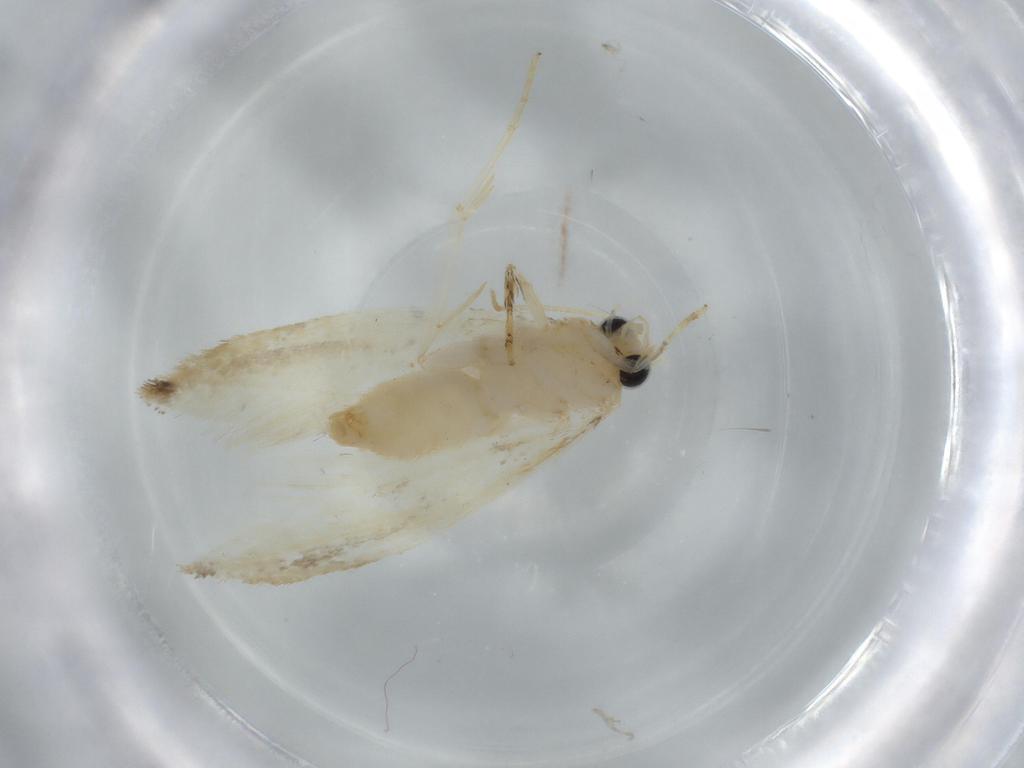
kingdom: Animalia
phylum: Arthropoda
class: Insecta
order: Lepidoptera
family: Tineidae
